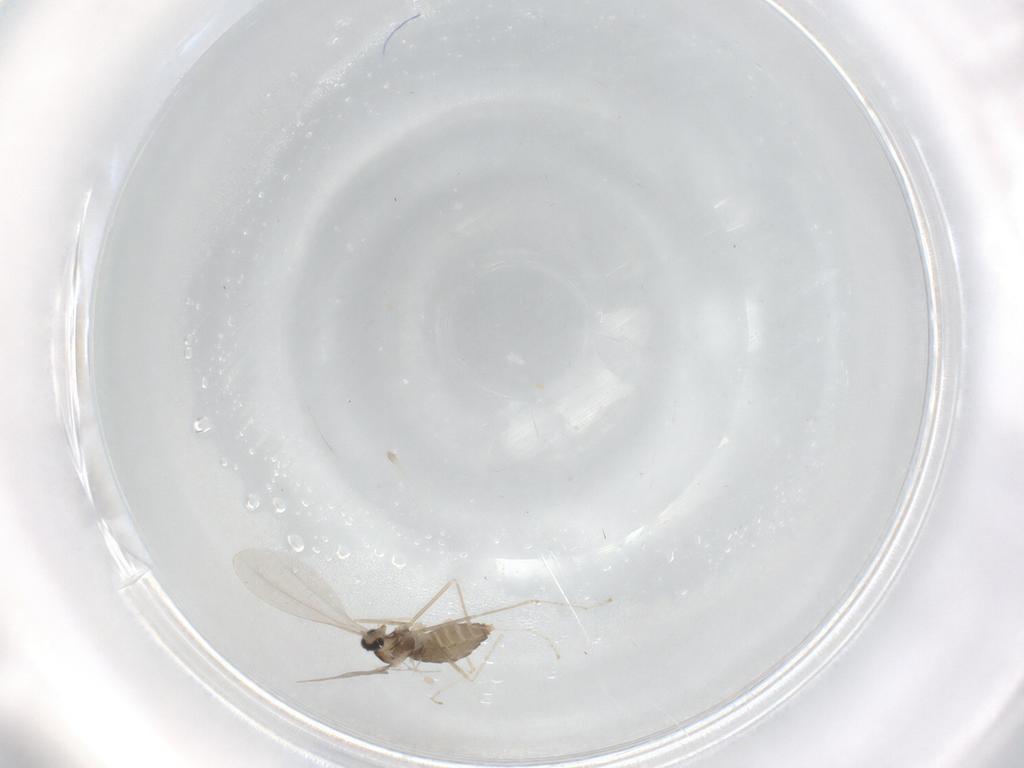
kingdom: Animalia
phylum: Arthropoda
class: Insecta
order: Diptera
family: Cecidomyiidae
